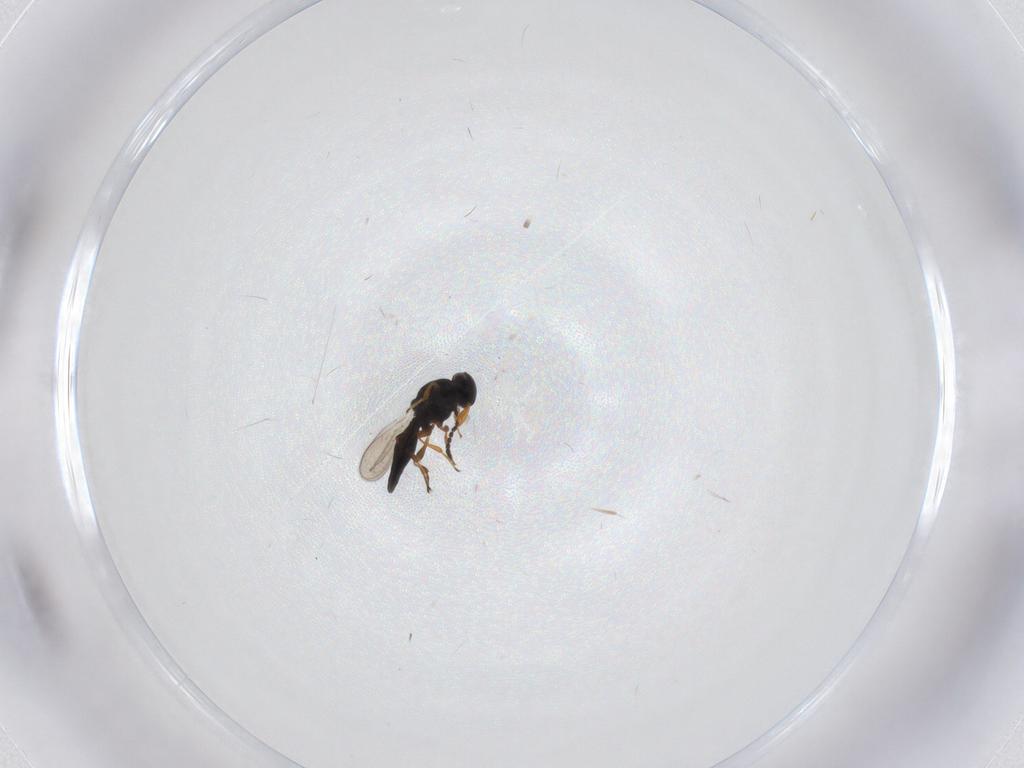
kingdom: Animalia
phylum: Arthropoda
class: Insecta
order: Hymenoptera
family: Platygastridae
